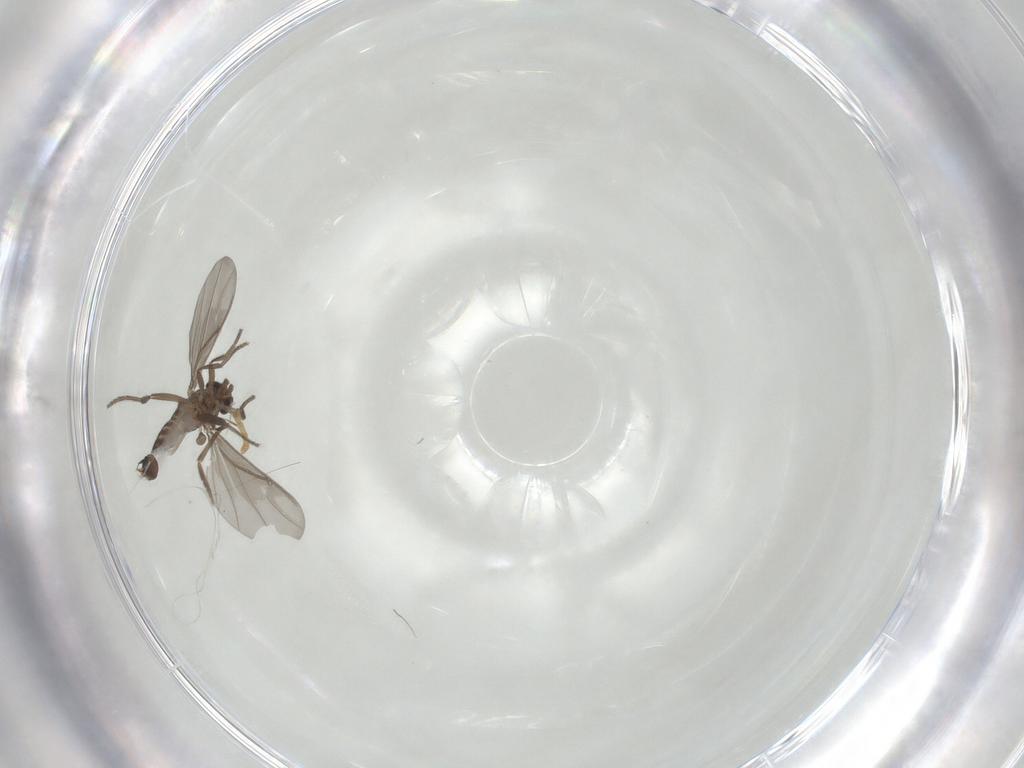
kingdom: Animalia
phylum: Arthropoda
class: Insecta
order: Diptera
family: Phoridae
